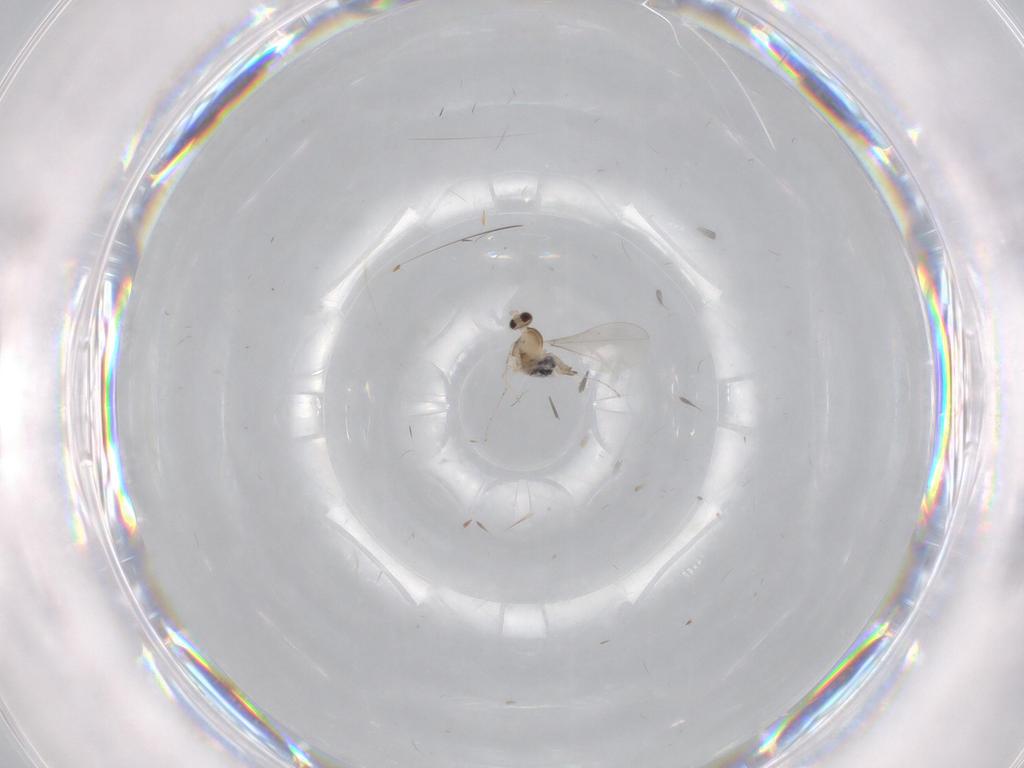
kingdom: Animalia
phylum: Arthropoda
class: Insecta
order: Diptera
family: Cecidomyiidae
